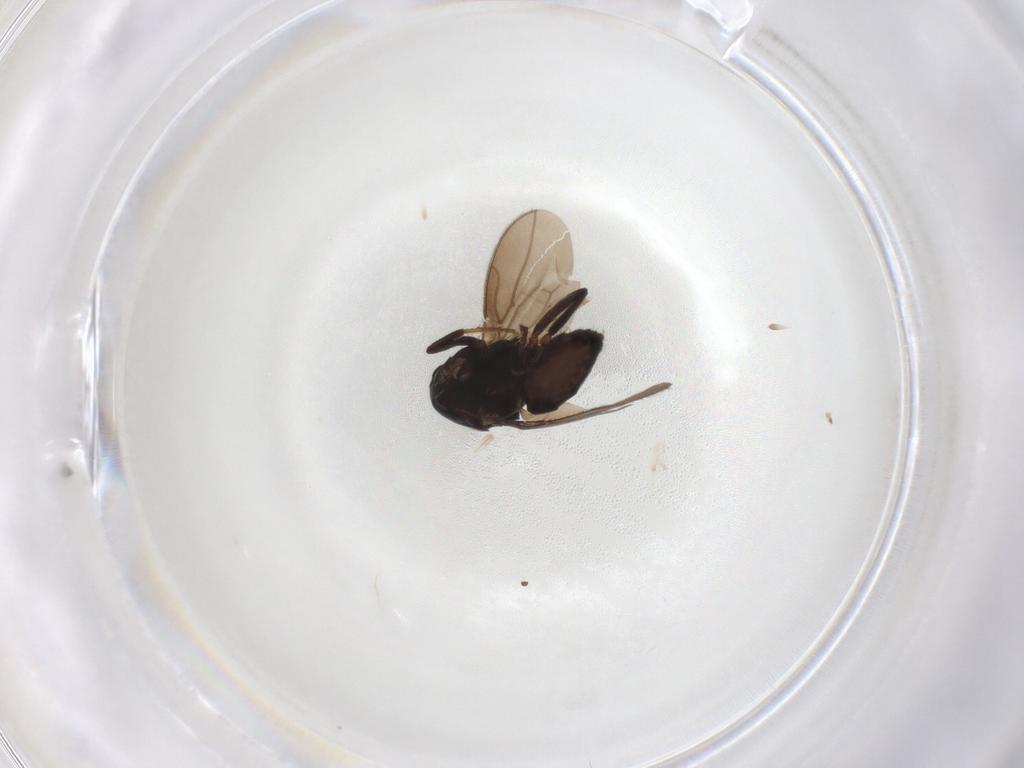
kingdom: Animalia
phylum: Arthropoda
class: Insecta
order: Diptera
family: Sphaeroceridae
